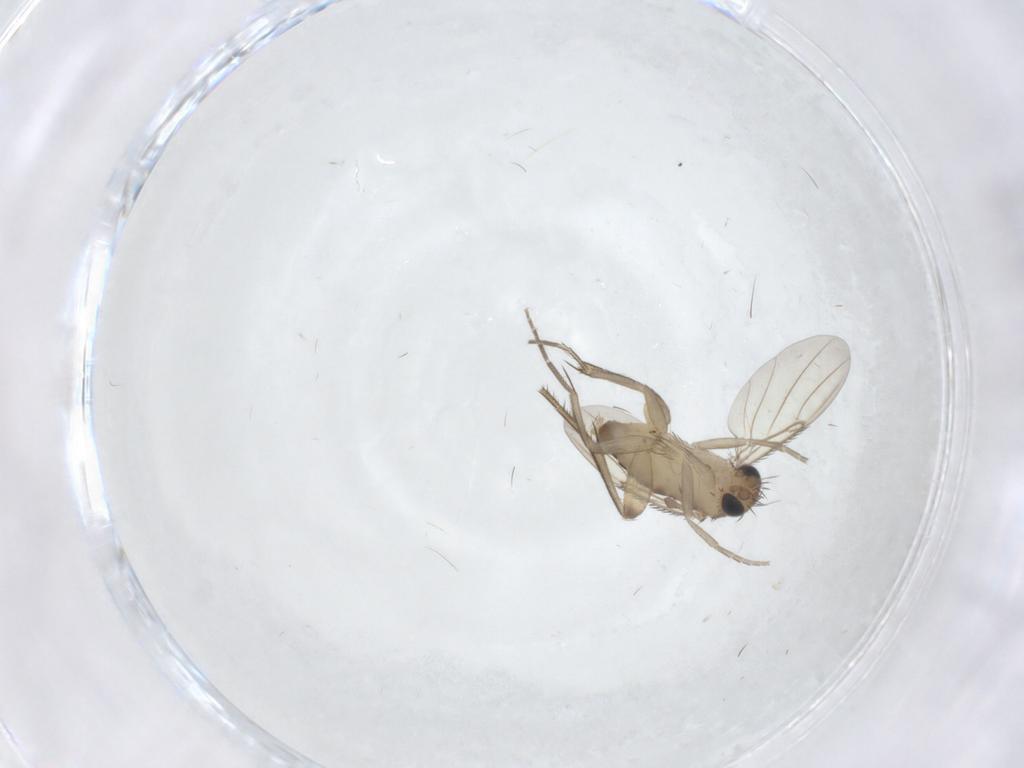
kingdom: Animalia
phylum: Arthropoda
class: Insecta
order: Diptera
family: Phoridae
